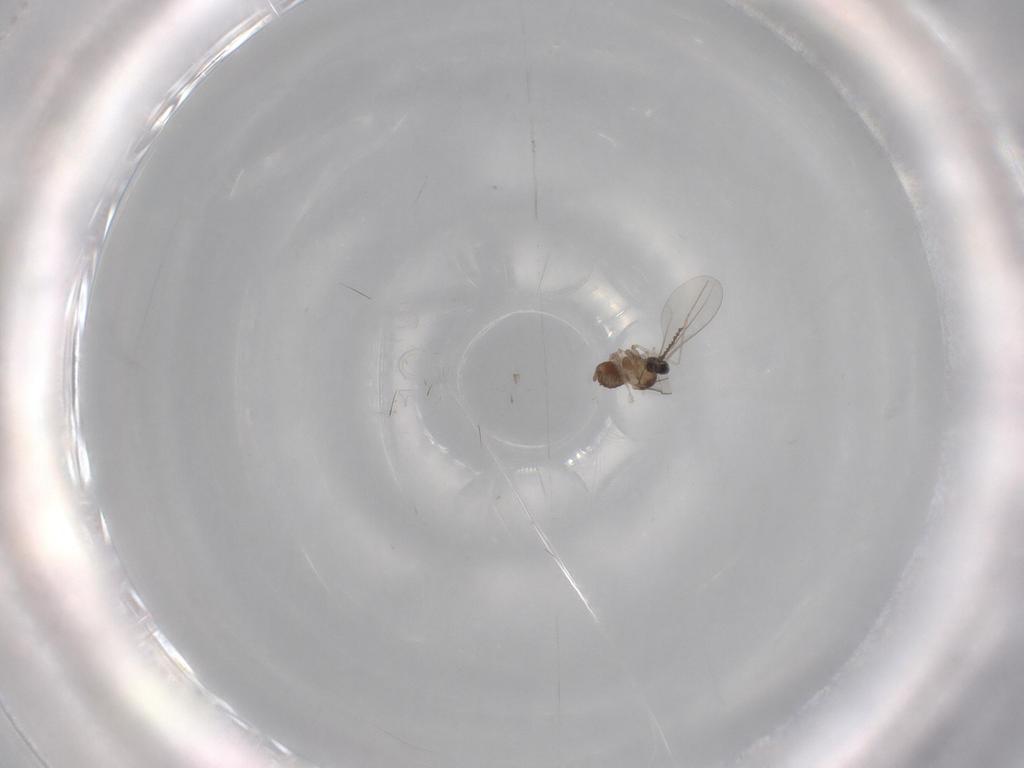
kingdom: Animalia
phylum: Arthropoda
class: Insecta
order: Diptera
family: Cecidomyiidae
